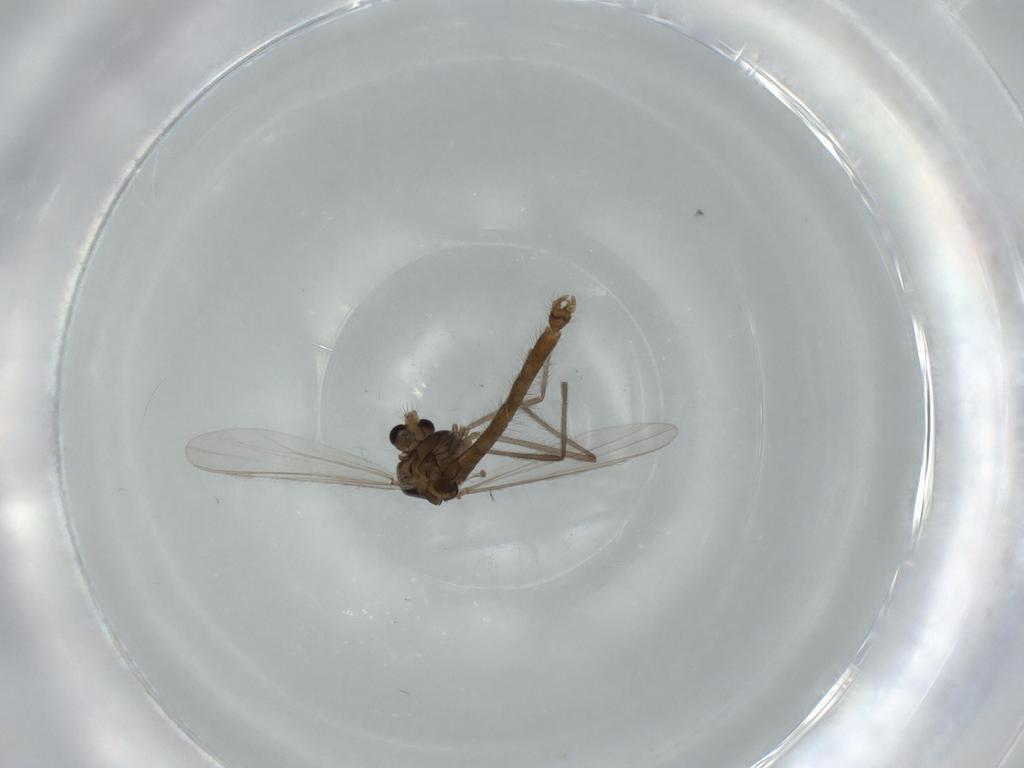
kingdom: Animalia
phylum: Arthropoda
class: Insecta
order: Diptera
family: Chironomidae
